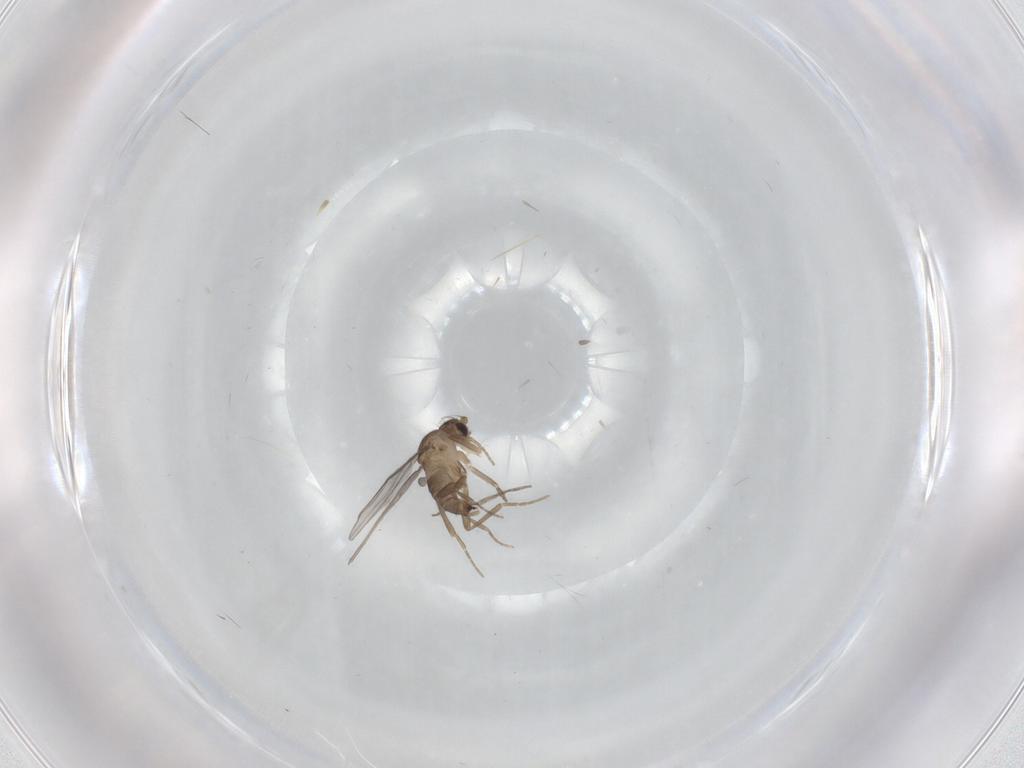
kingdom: Animalia
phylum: Arthropoda
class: Insecta
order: Diptera
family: Cecidomyiidae
